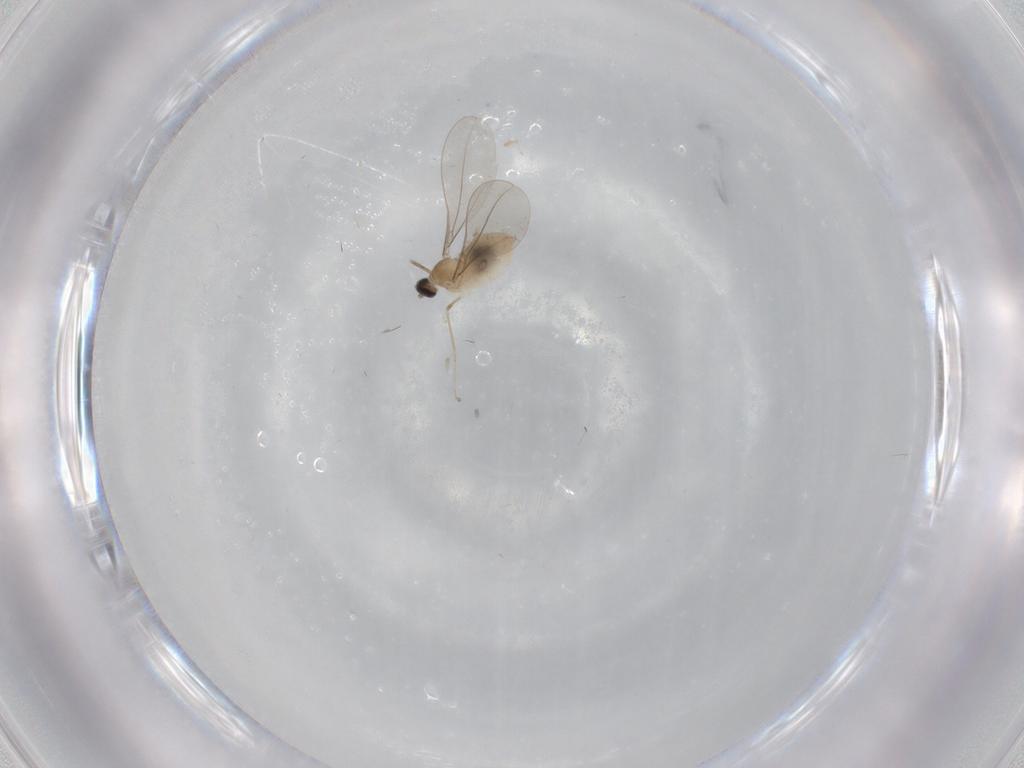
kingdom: Animalia
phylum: Arthropoda
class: Insecta
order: Diptera
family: Cecidomyiidae
